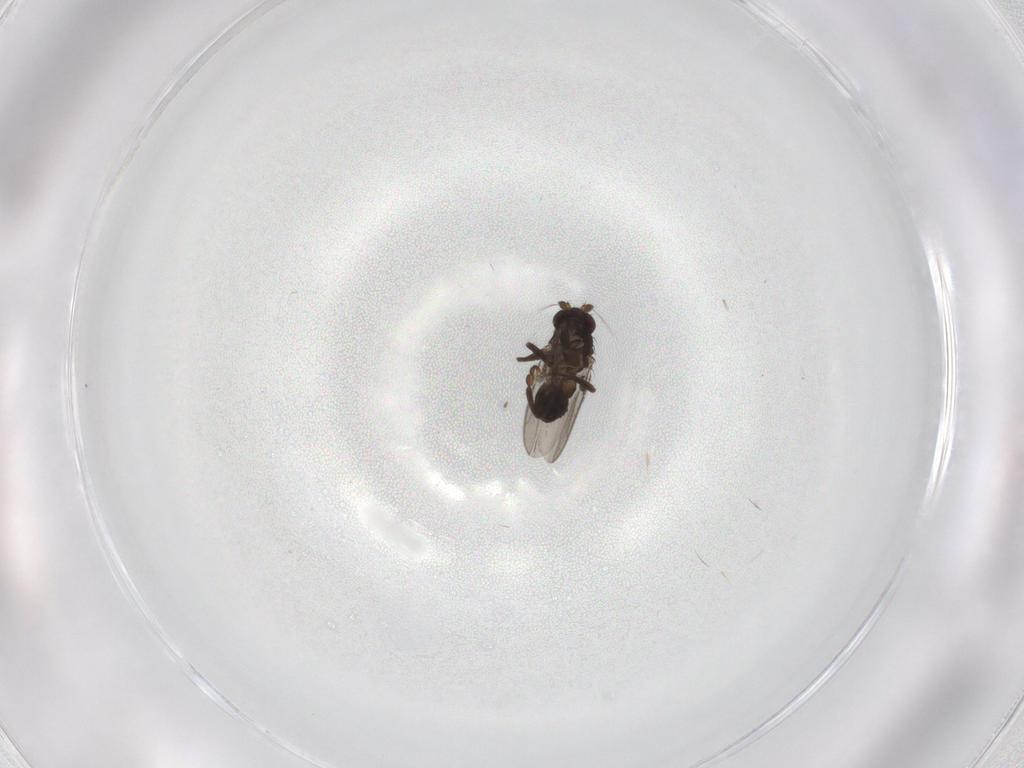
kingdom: Animalia
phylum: Arthropoda
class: Insecta
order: Diptera
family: Sphaeroceridae
